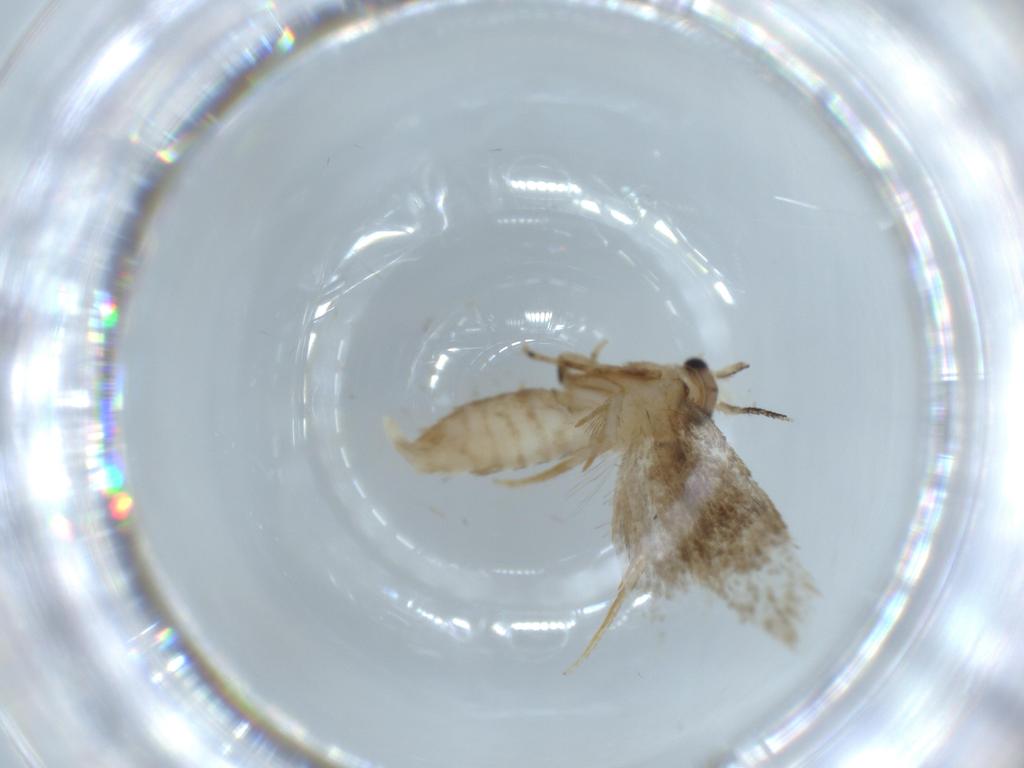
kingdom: Animalia
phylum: Arthropoda
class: Insecta
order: Lepidoptera
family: Tineidae
